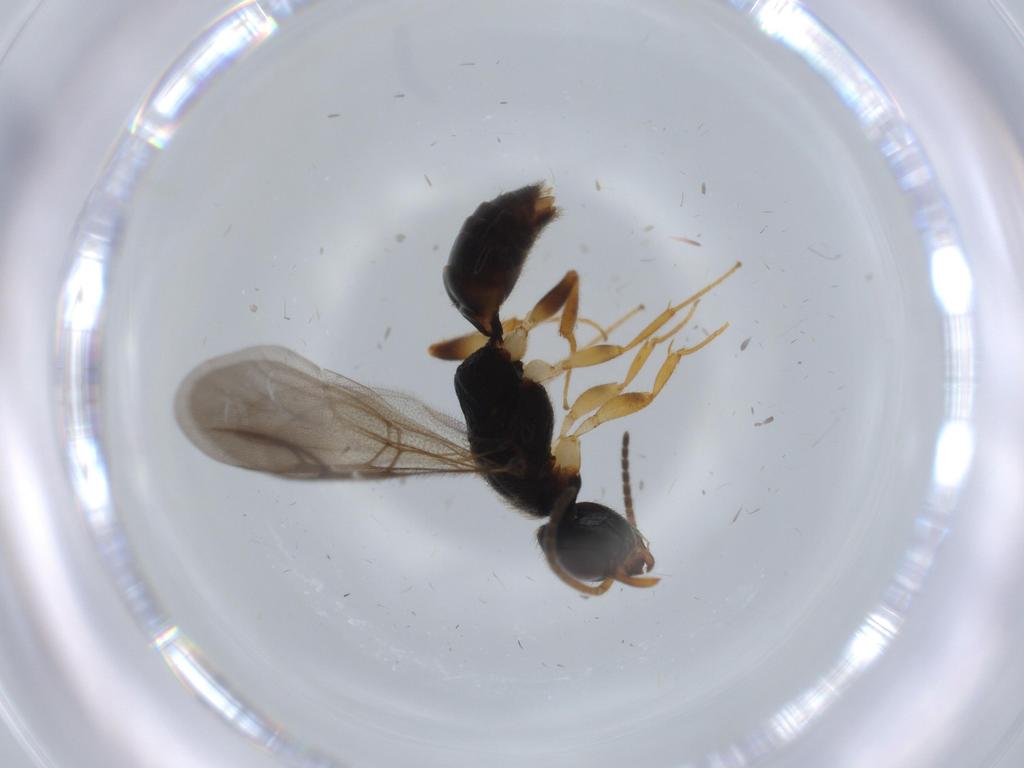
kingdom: Animalia
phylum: Arthropoda
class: Insecta
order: Hymenoptera
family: Bethylidae
